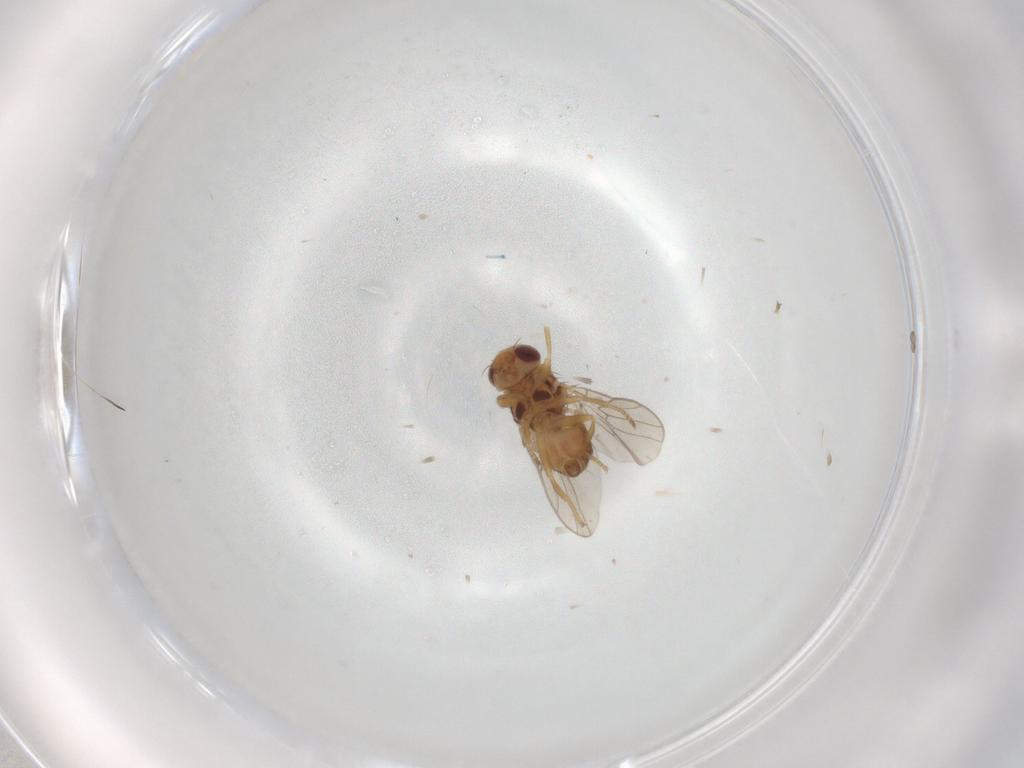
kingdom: Animalia
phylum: Arthropoda
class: Insecta
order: Diptera
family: Chloropidae
